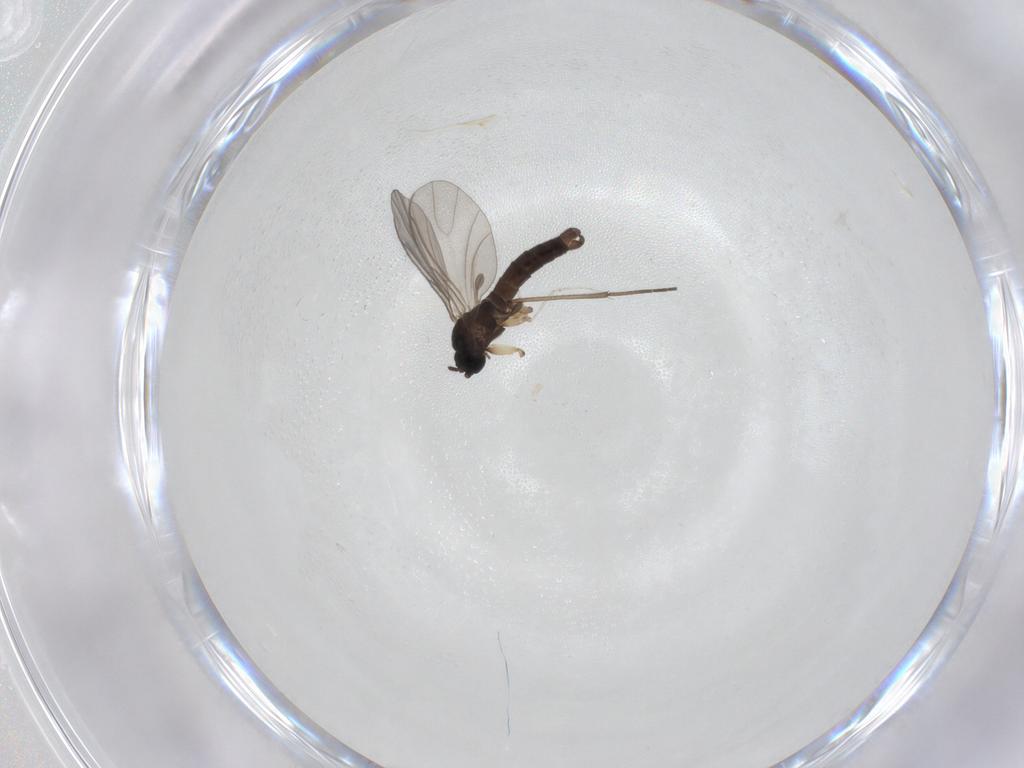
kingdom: Animalia
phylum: Arthropoda
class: Insecta
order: Diptera
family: Sciaridae
